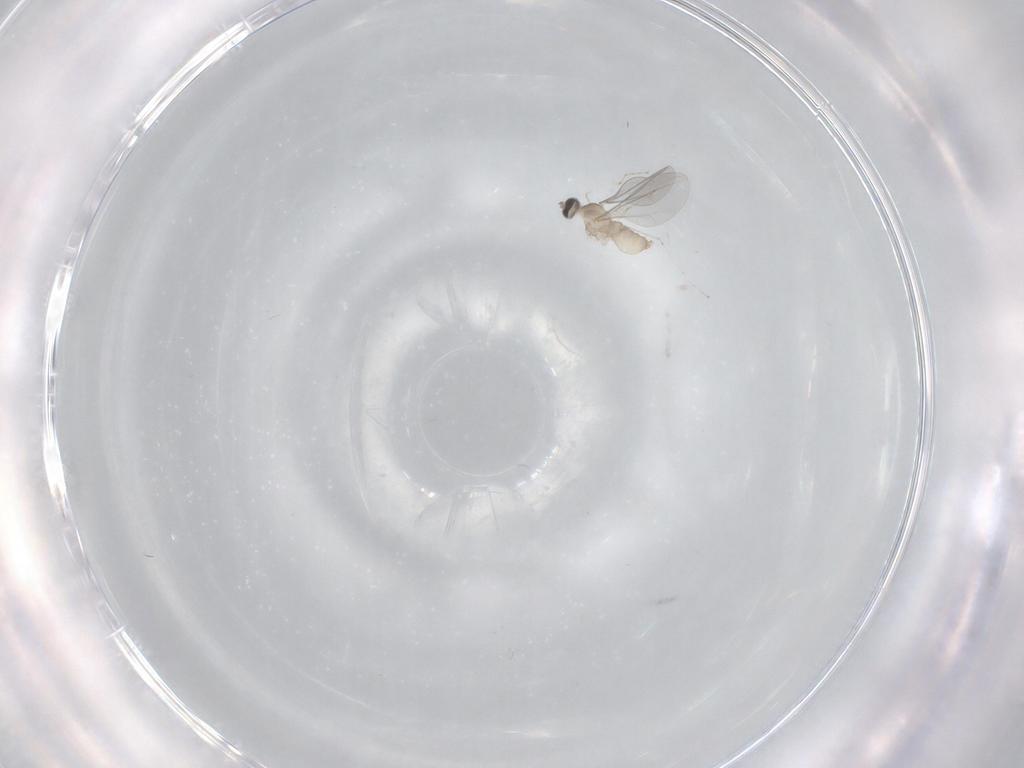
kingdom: Animalia
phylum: Arthropoda
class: Insecta
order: Diptera
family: Cecidomyiidae
